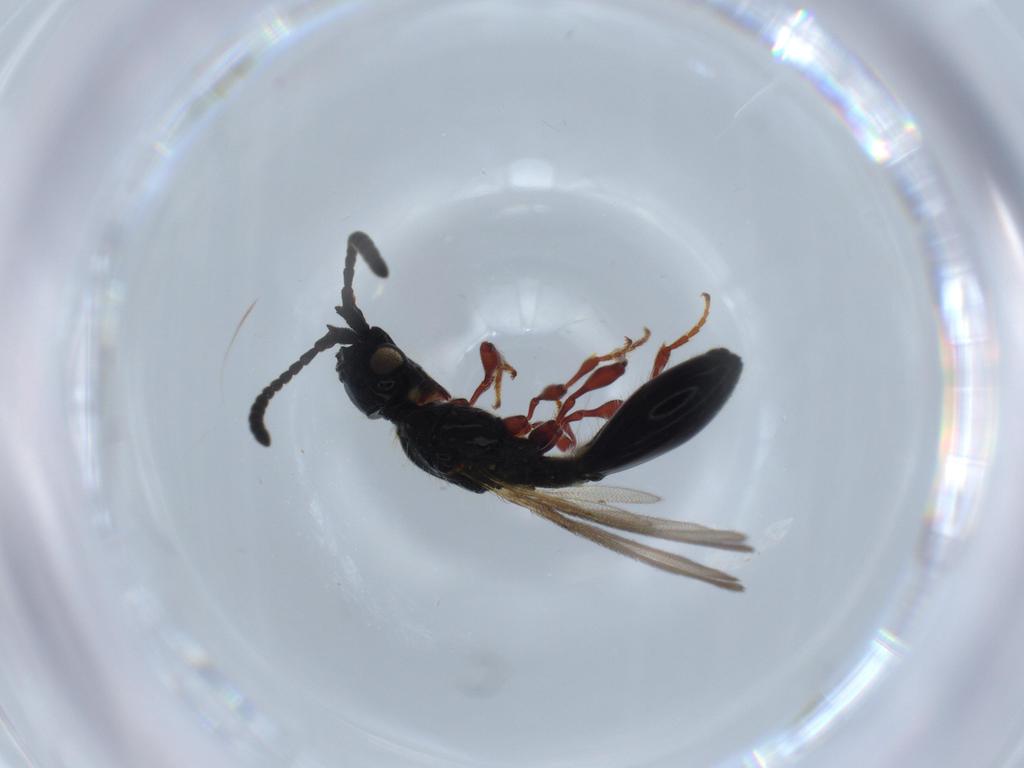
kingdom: Animalia
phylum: Arthropoda
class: Insecta
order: Hymenoptera
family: Diapriidae
